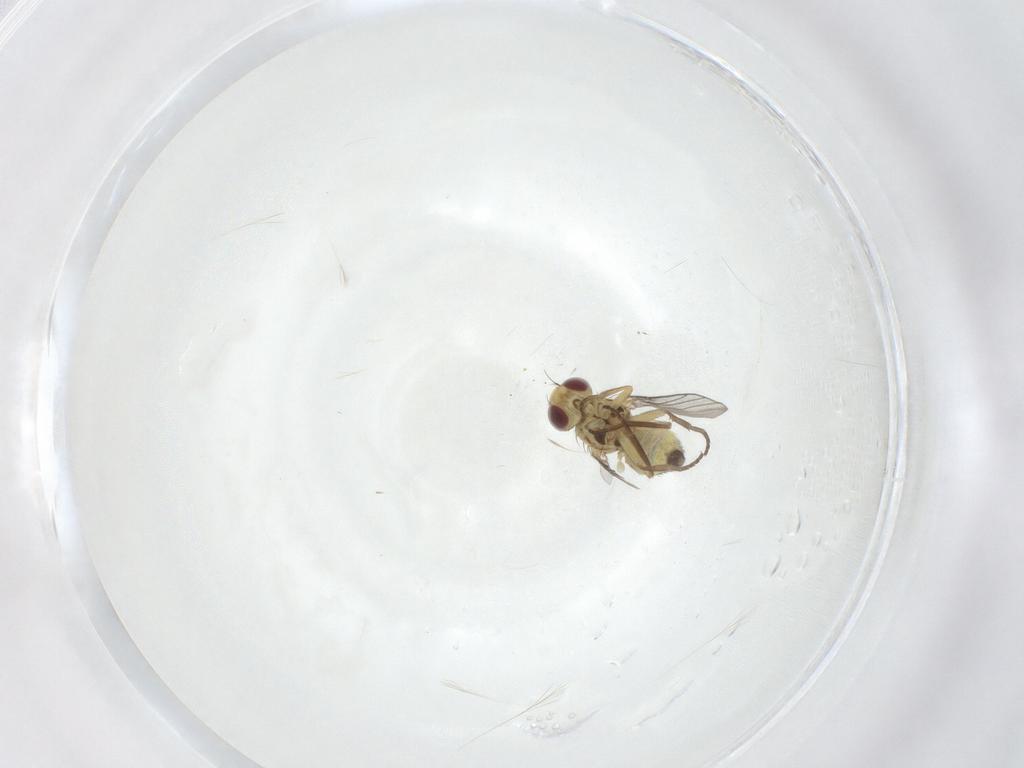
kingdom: Animalia
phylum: Arthropoda
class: Insecta
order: Diptera
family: Agromyzidae
